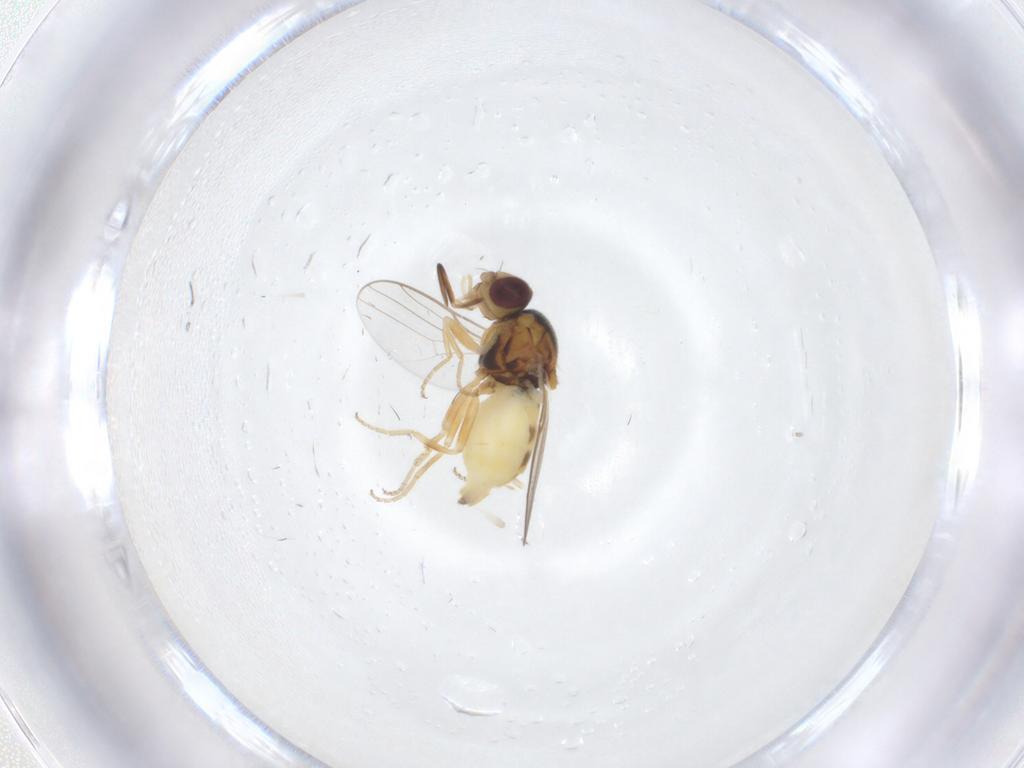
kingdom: Animalia
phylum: Arthropoda
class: Insecta
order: Diptera
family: Chloropidae
